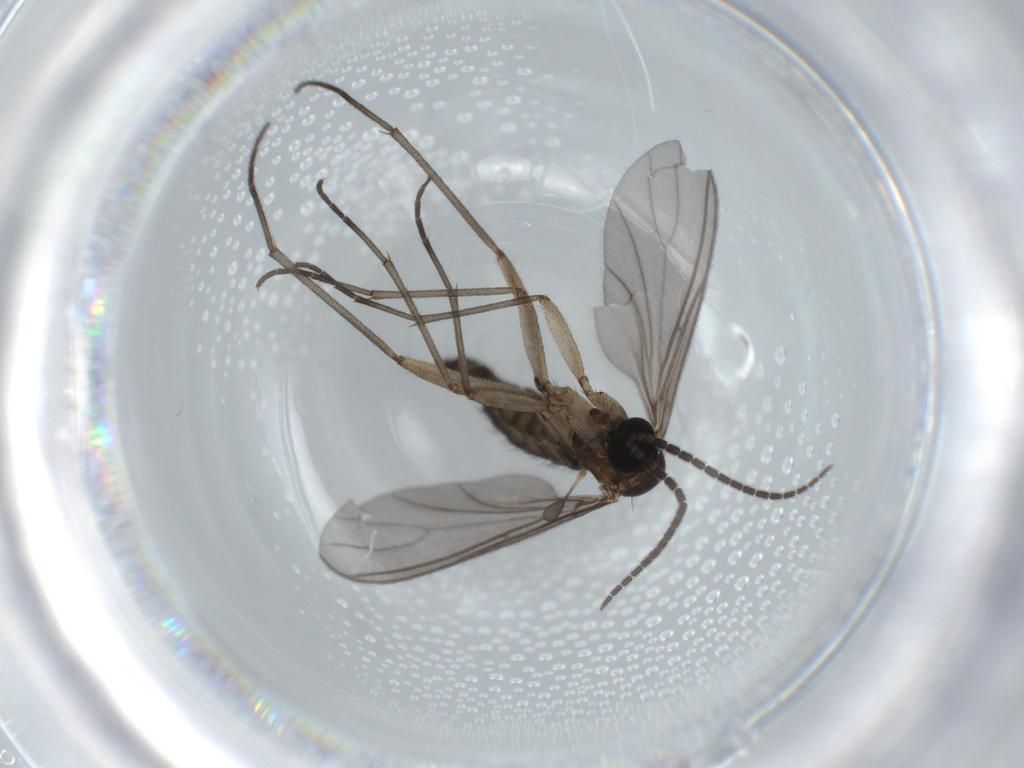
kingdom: Animalia
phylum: Arthropoda
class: Insecta
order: Diptera
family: Sciaridae
